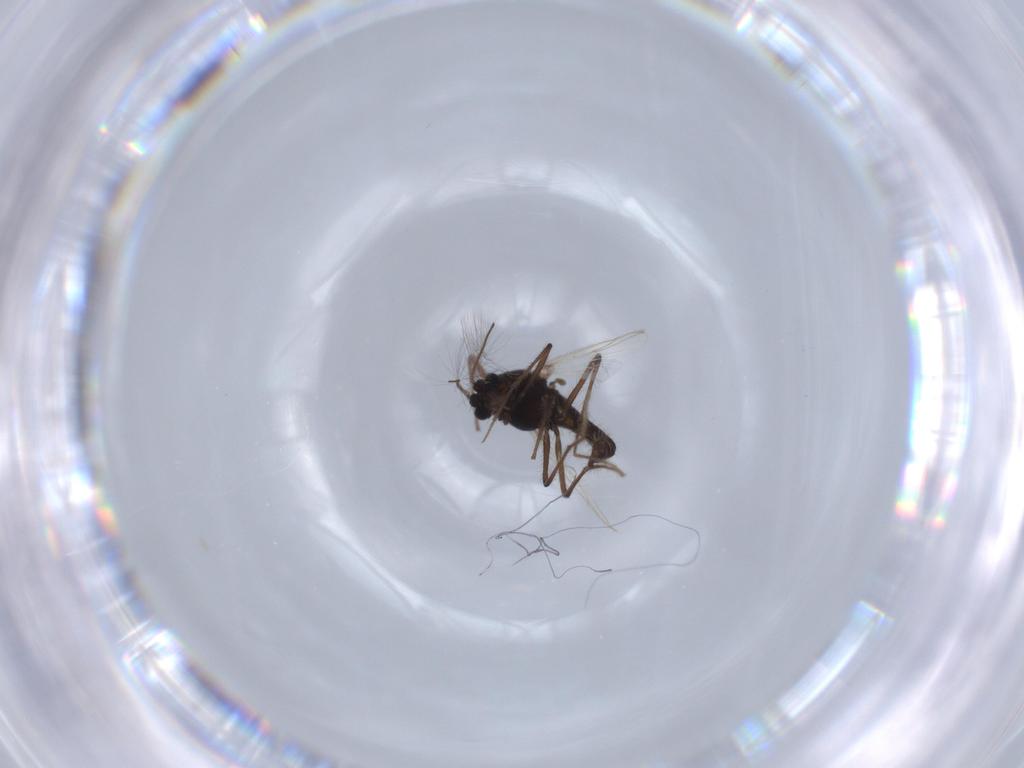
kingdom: Animalia
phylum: Arthropoda
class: Insecta
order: Diptera
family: Chironomidae
